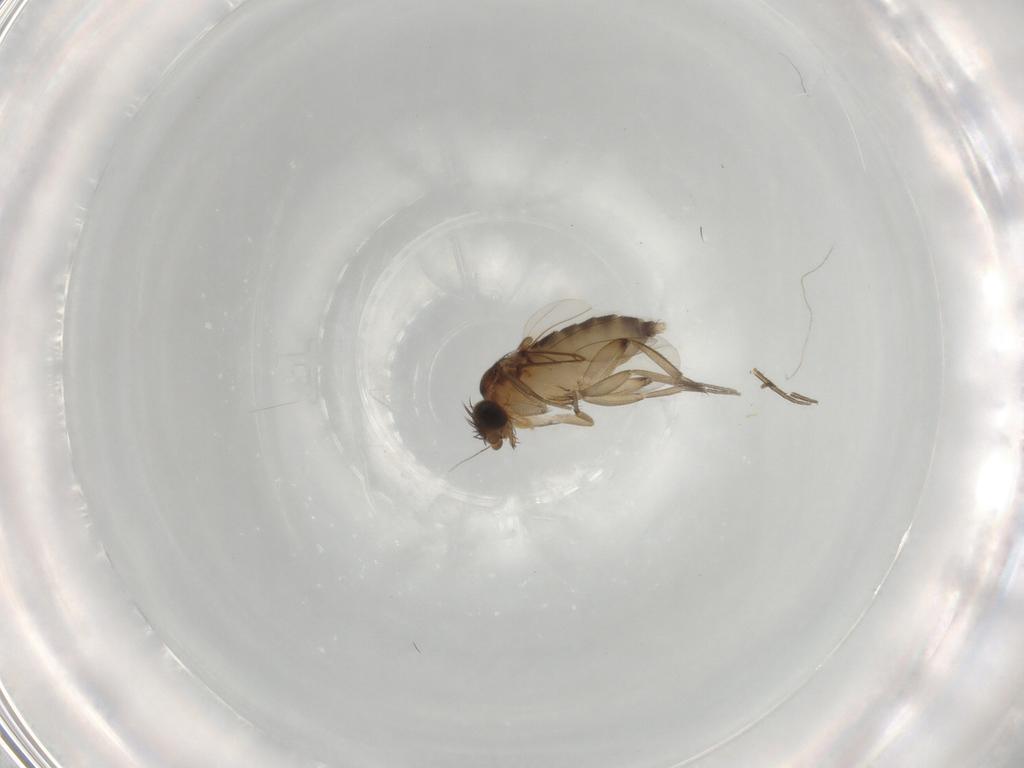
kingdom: Animalia
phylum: Arthropoda
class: Insecta
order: Diptera
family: Phoridae
